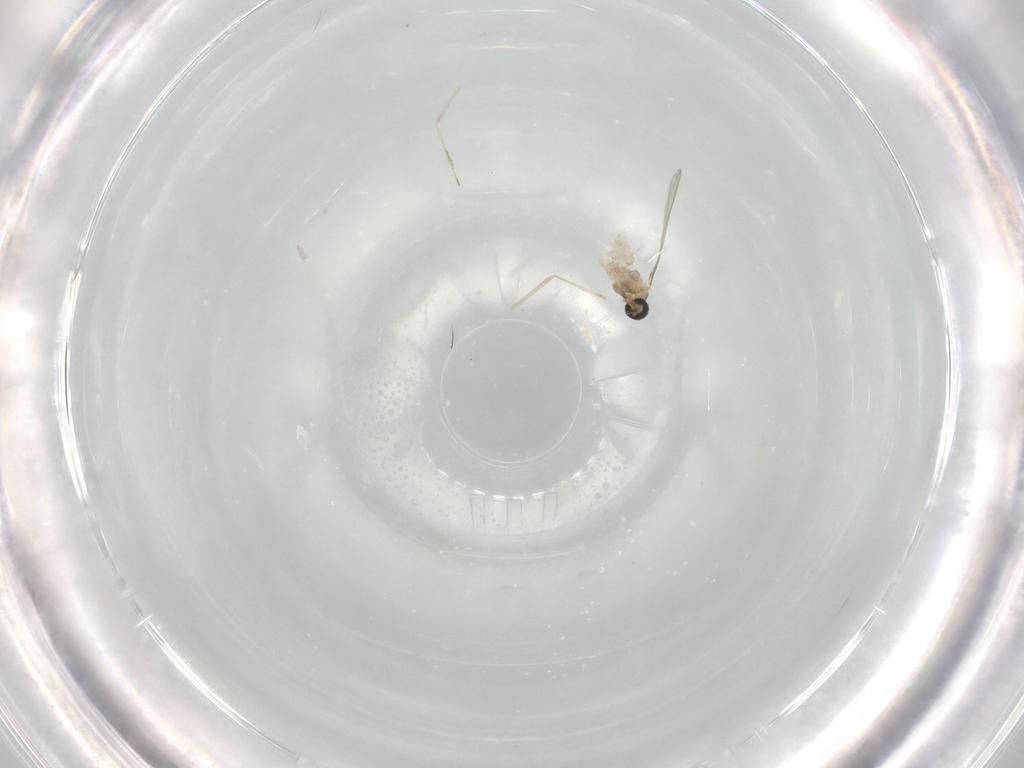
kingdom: Animalia
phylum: Arthropoda
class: Insecta
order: Diptera
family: Cecidomyiidae
